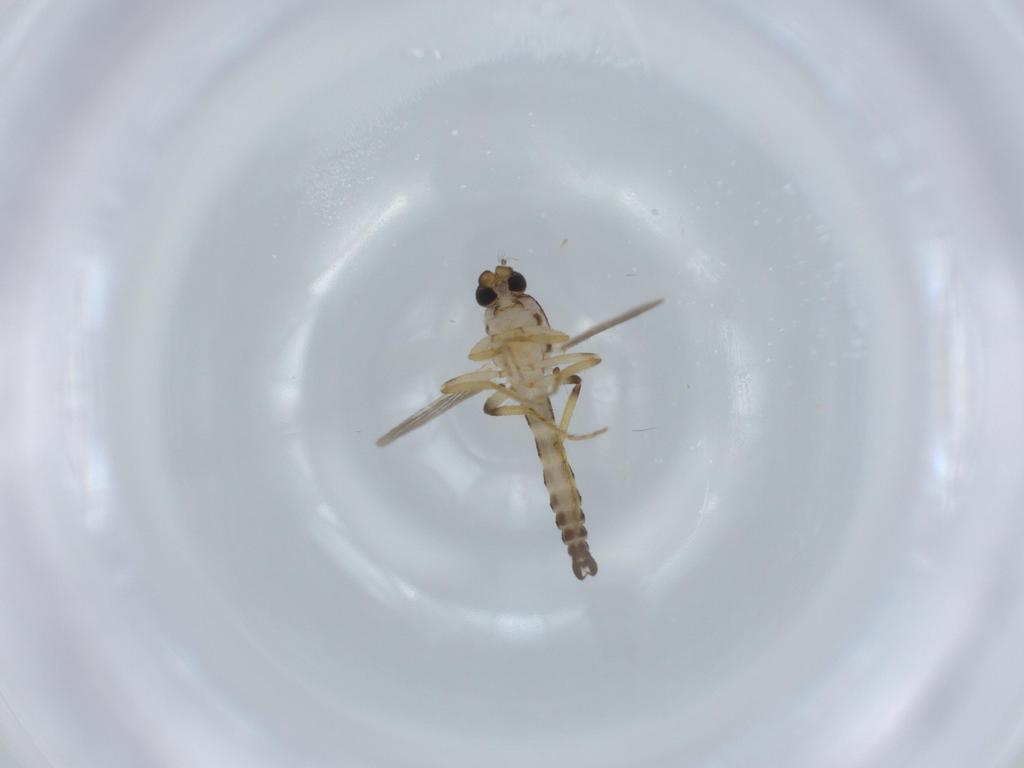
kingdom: Animalia
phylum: Arthropoda
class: Insecta
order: Diptera
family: Ceratopogonidae
